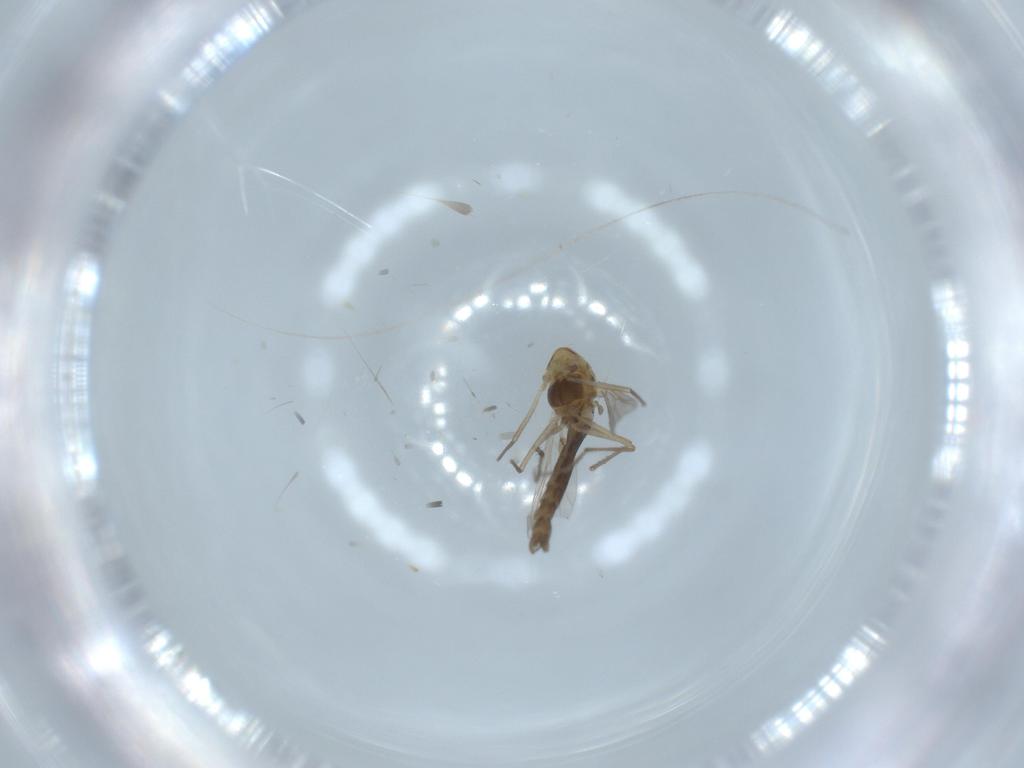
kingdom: Animalia
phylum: Arthropoda
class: Insecta
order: Diptera
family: Chironomidae
